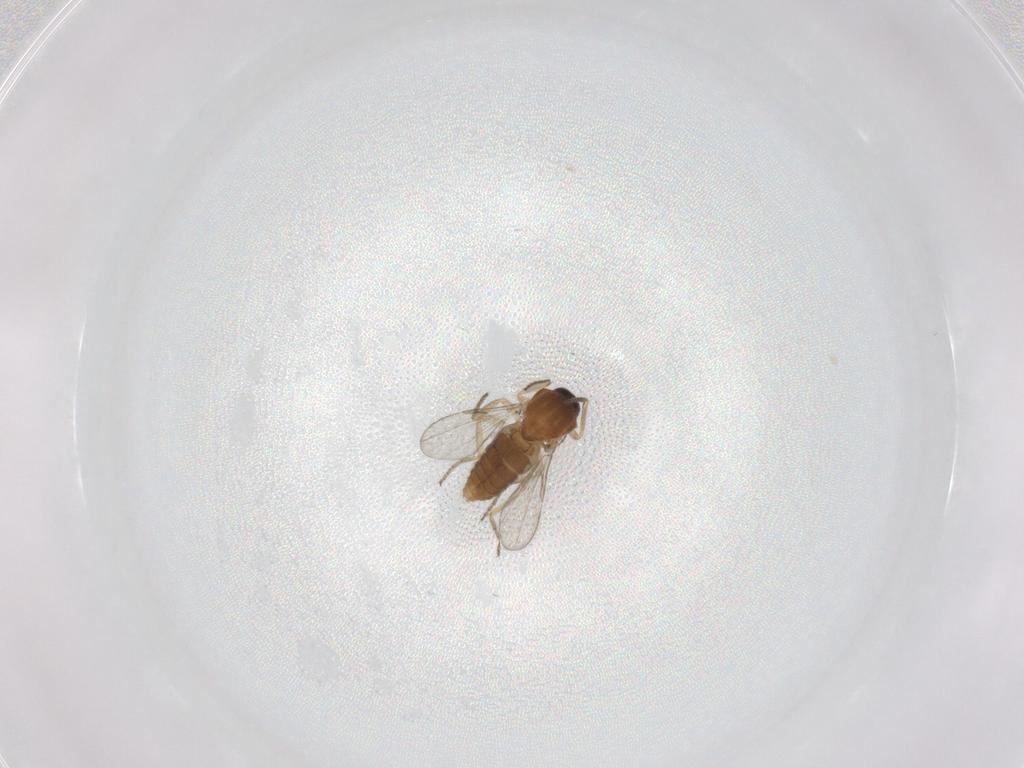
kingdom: Animalia
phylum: Arthropoda
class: Insecta
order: Diptera
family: Ceratopogonidae
